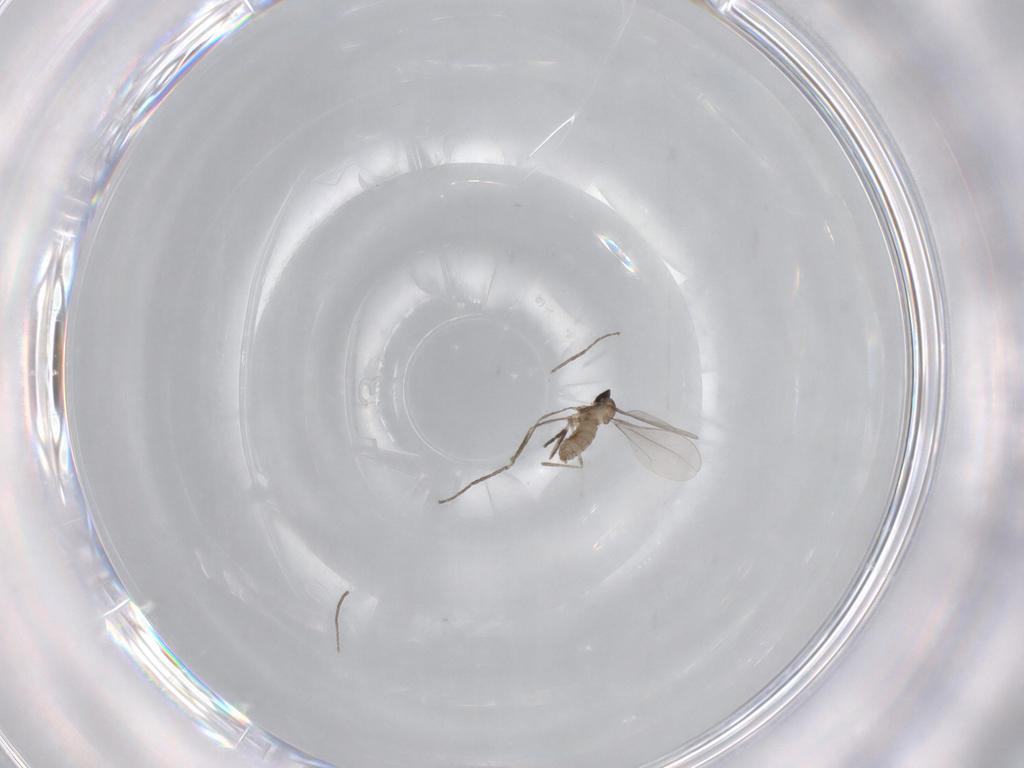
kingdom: Animalia
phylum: Arthropoda
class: Insecta
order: Diptera
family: Cecidomyiidae
